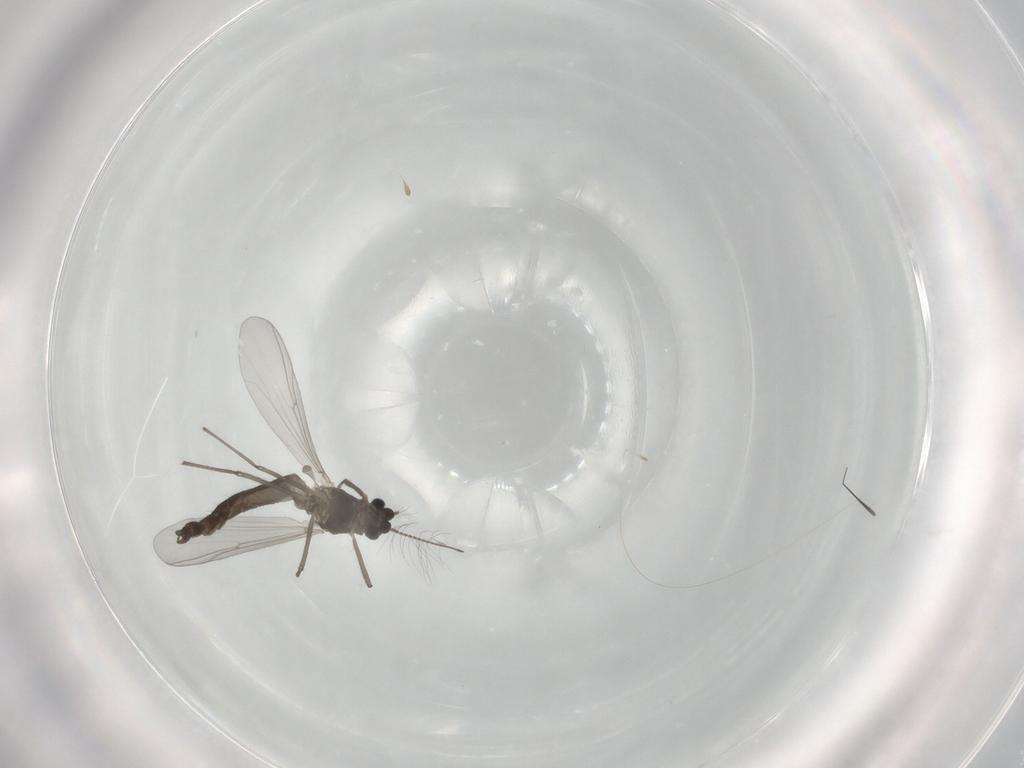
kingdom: Animalia
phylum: Arthropoda
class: Insecta
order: Diptera
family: Chironomidae
